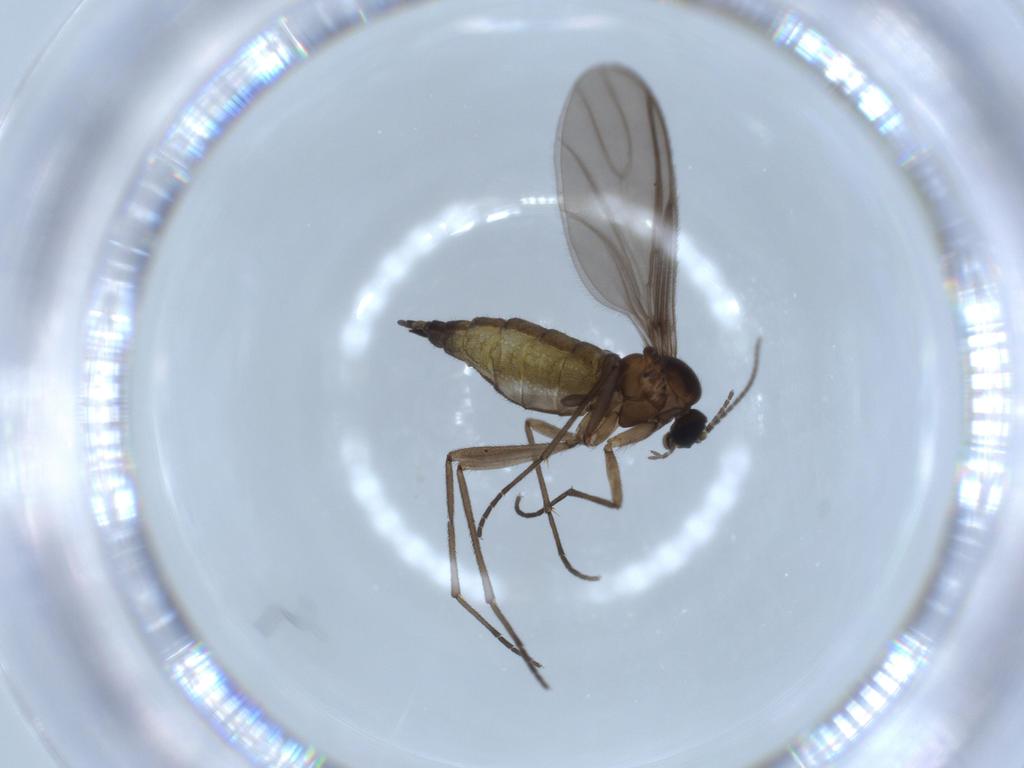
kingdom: Animalia
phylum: Arthropoda
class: Insecta
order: Diptera
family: Sciaridae
